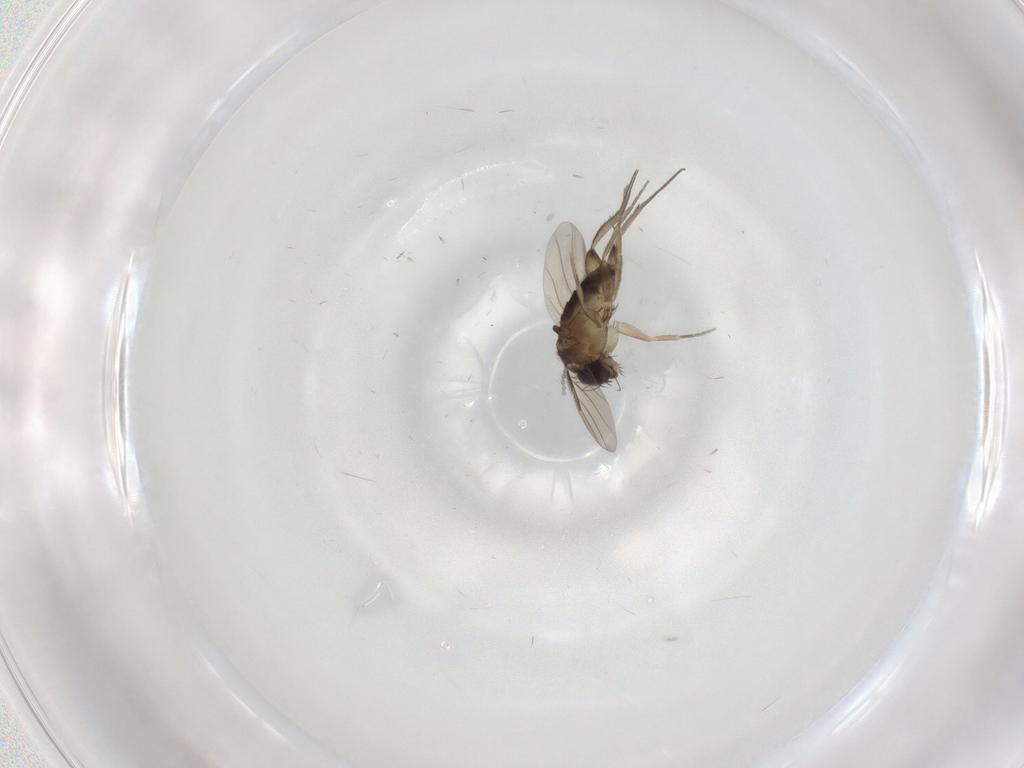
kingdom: Animalia
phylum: Arthropoda
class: Insecta
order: Diptera
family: Phoridae
